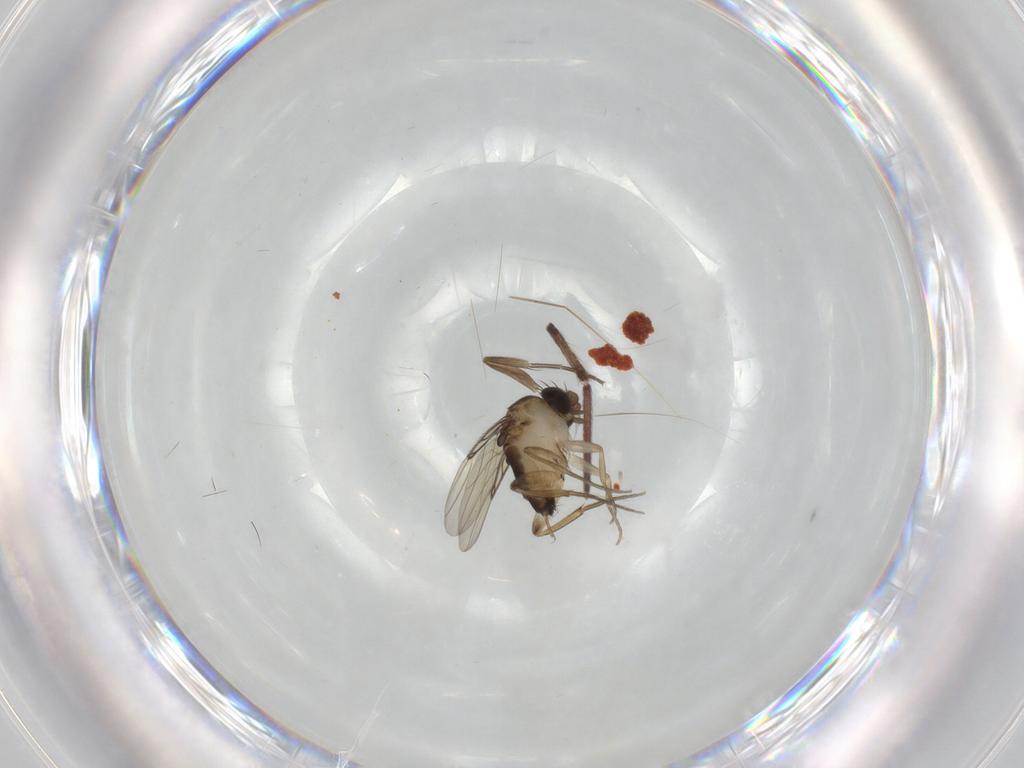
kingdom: Animalia
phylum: Arthropoda
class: Insecta
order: Diptera
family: Phoridae
